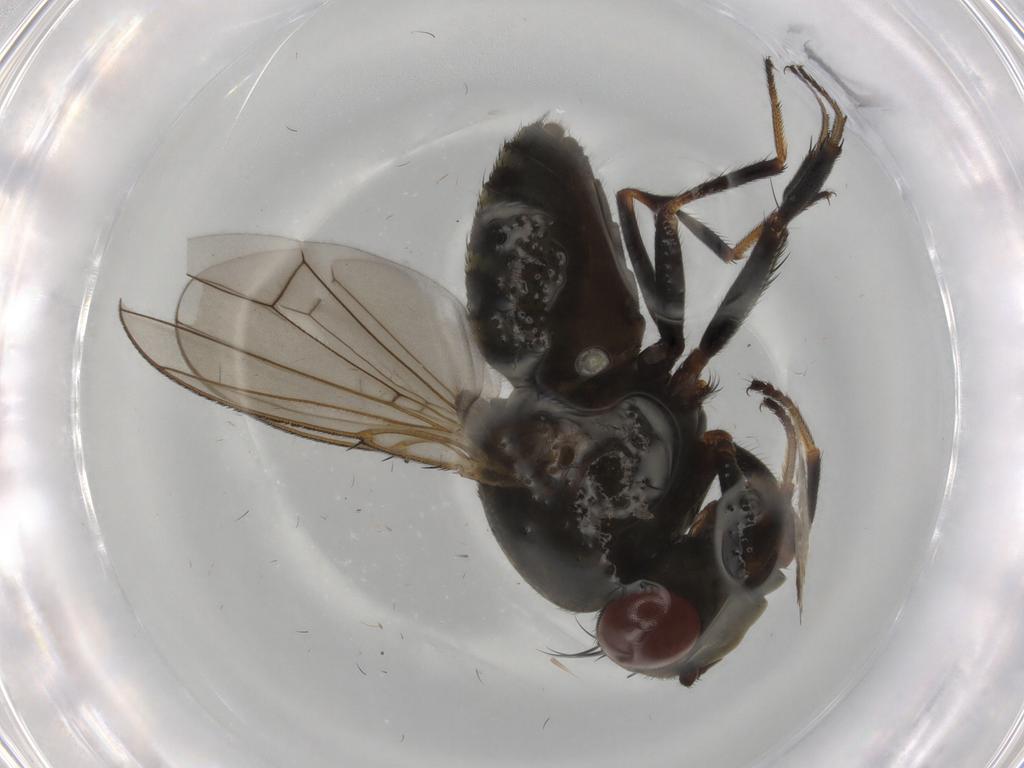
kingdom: Animalia
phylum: Arthropoda
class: Insecta
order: Diptera
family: Ephydridae
